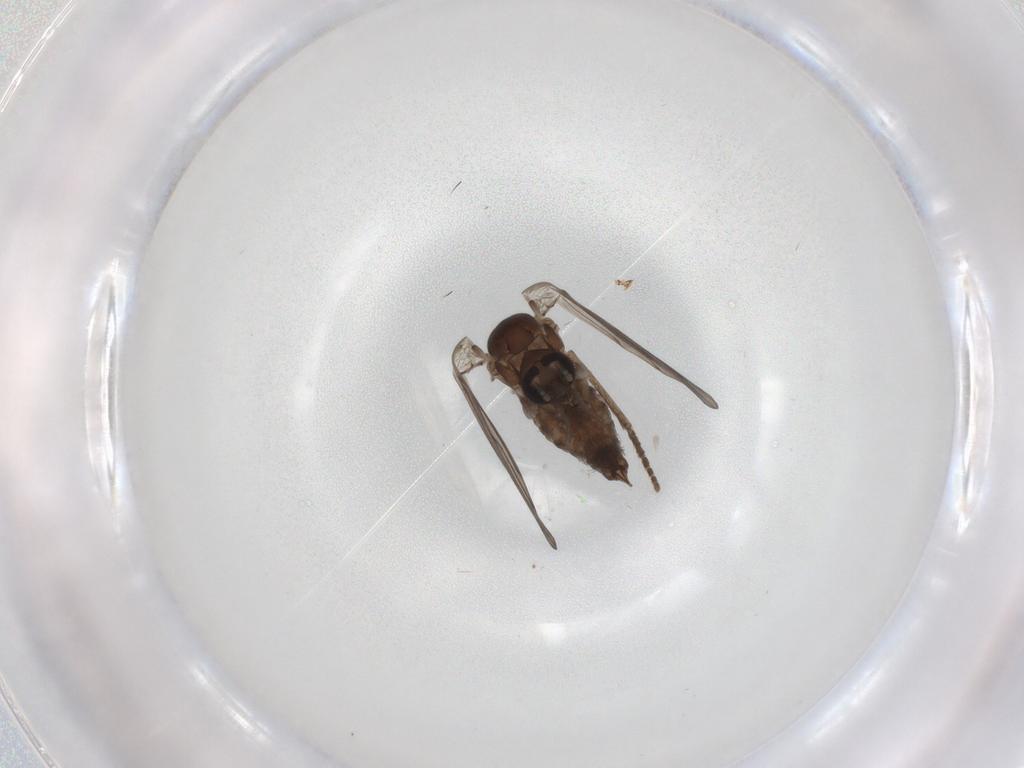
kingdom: Animalia
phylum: Arthropoda
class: Insecta
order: Diptera
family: Psychodidae
